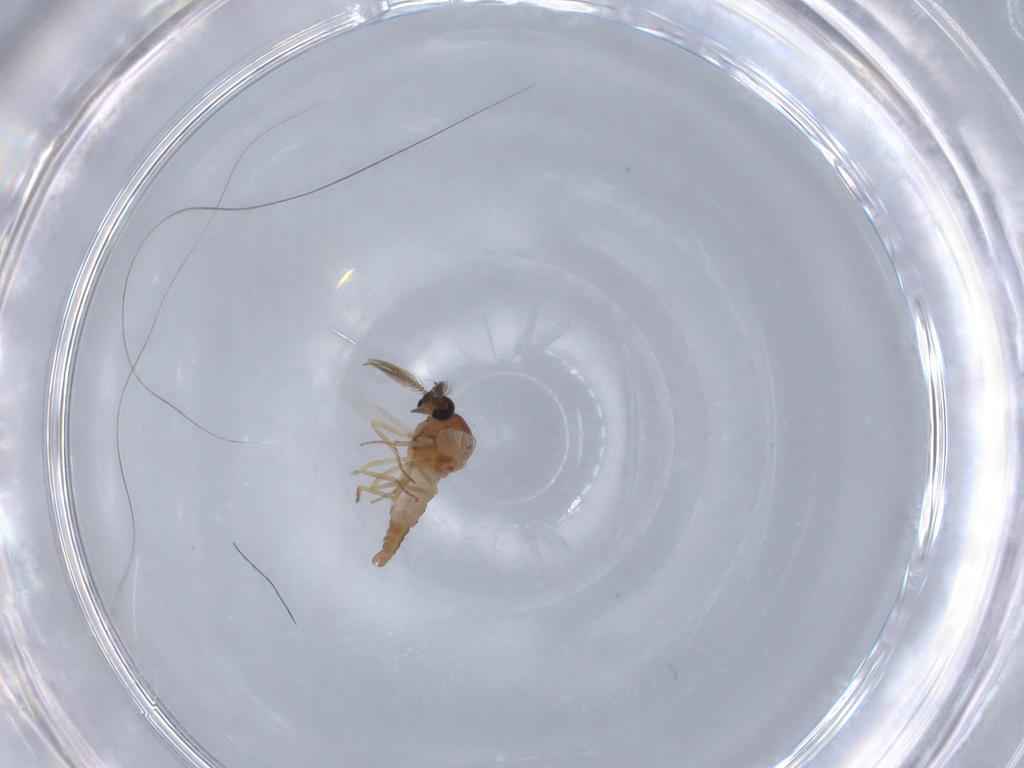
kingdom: Animalia
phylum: Arthropoda
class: Insecta
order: Diptera
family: Ceratopogonidae
